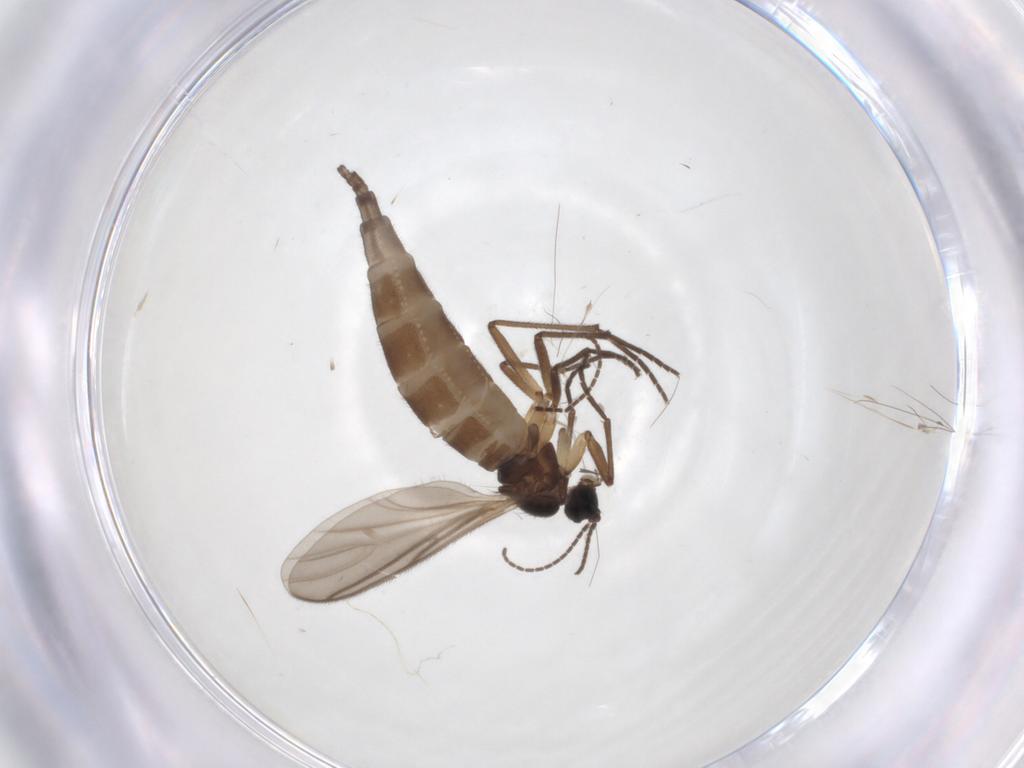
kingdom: Animalia
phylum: Arthropoda
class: Insecta
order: Diptera
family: Sciaridae
